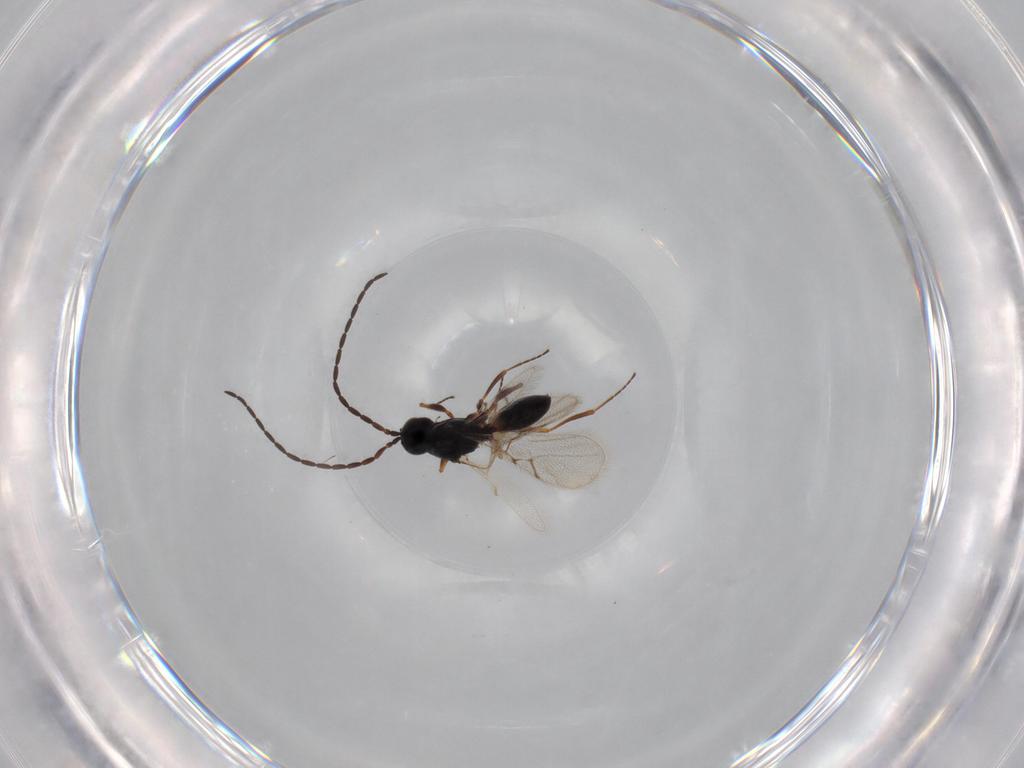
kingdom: Animalia
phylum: Arthropoda
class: Insecta
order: Hymenoptera
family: Figitidae
